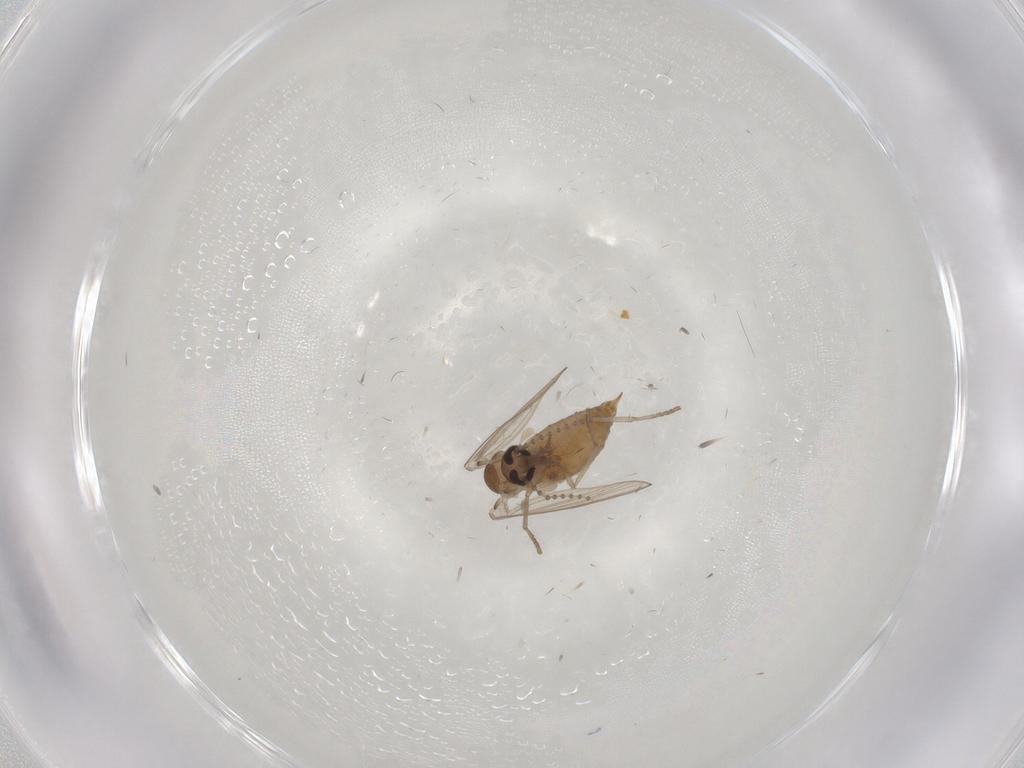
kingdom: Animalia
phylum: Arthropoda
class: Insecta
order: Diptera
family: Psychodidae
